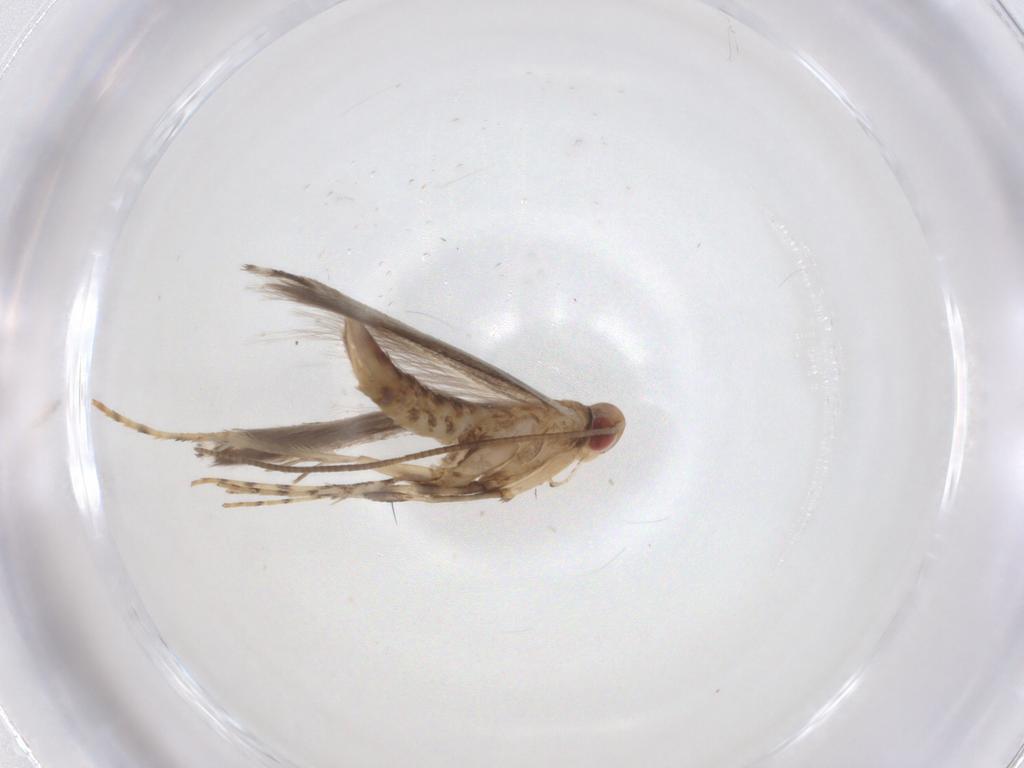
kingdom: Animalia
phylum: Arthropoda
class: Insecta
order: Lepidoptera
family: Gracillariidae
